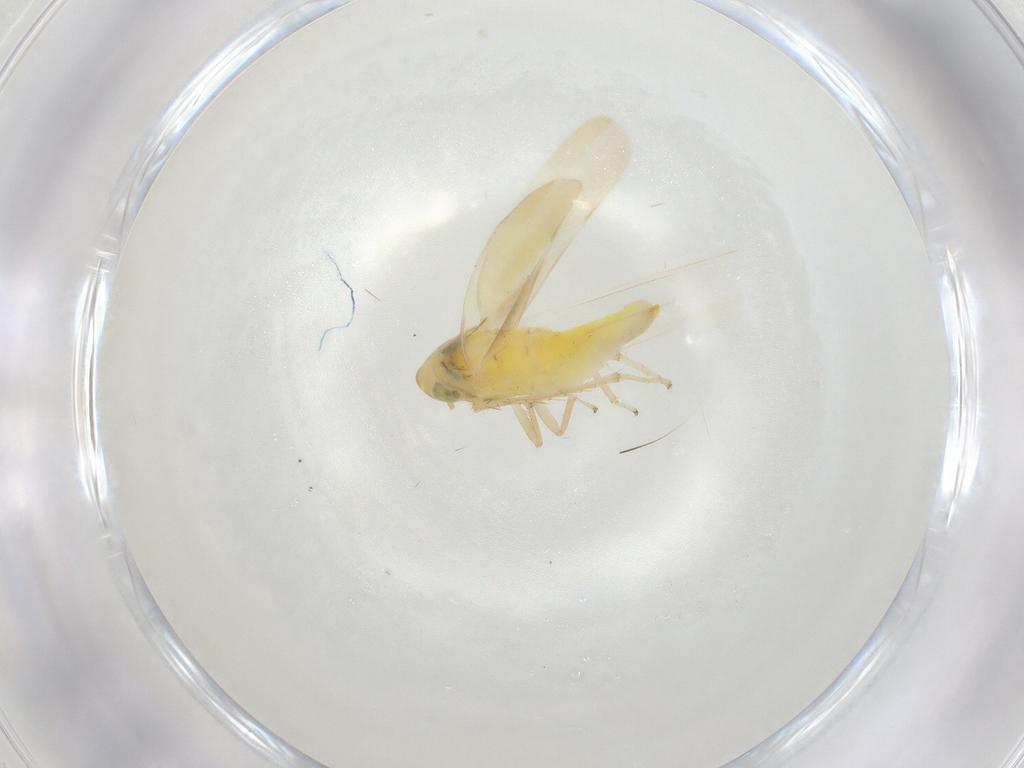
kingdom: Animalia
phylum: Arthropoda
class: Insecta
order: Hemiptera
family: Cicadellidae
